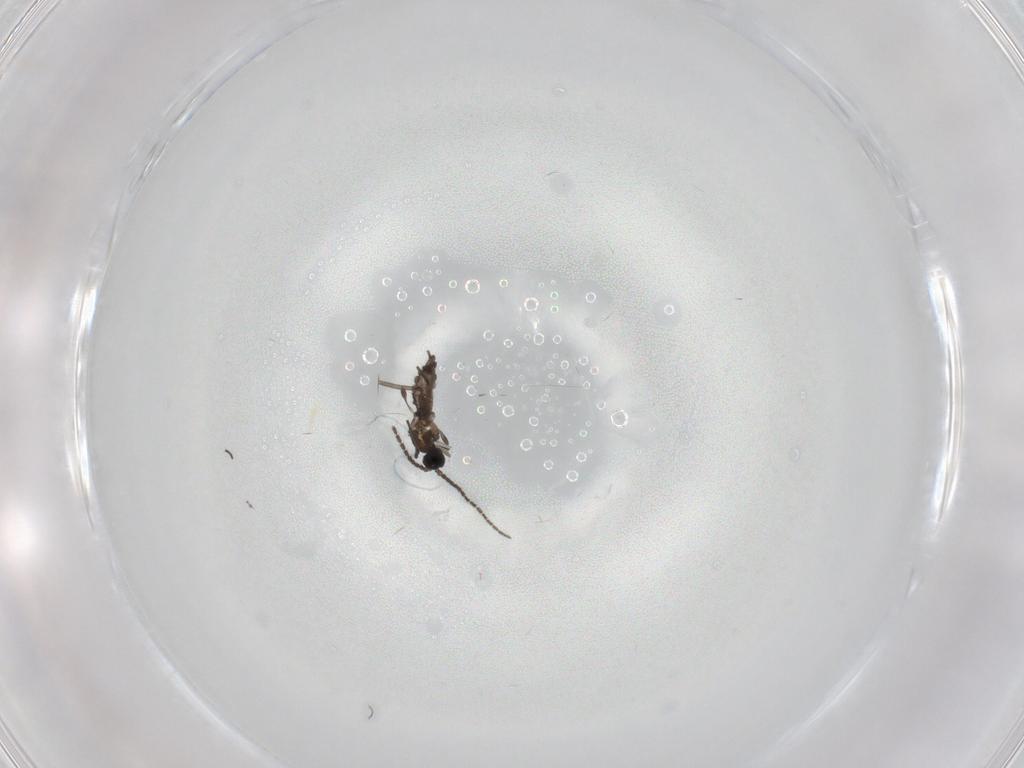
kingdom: Animalia
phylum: Arthropoda
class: Insecta
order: Diptera
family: Sciaridae
